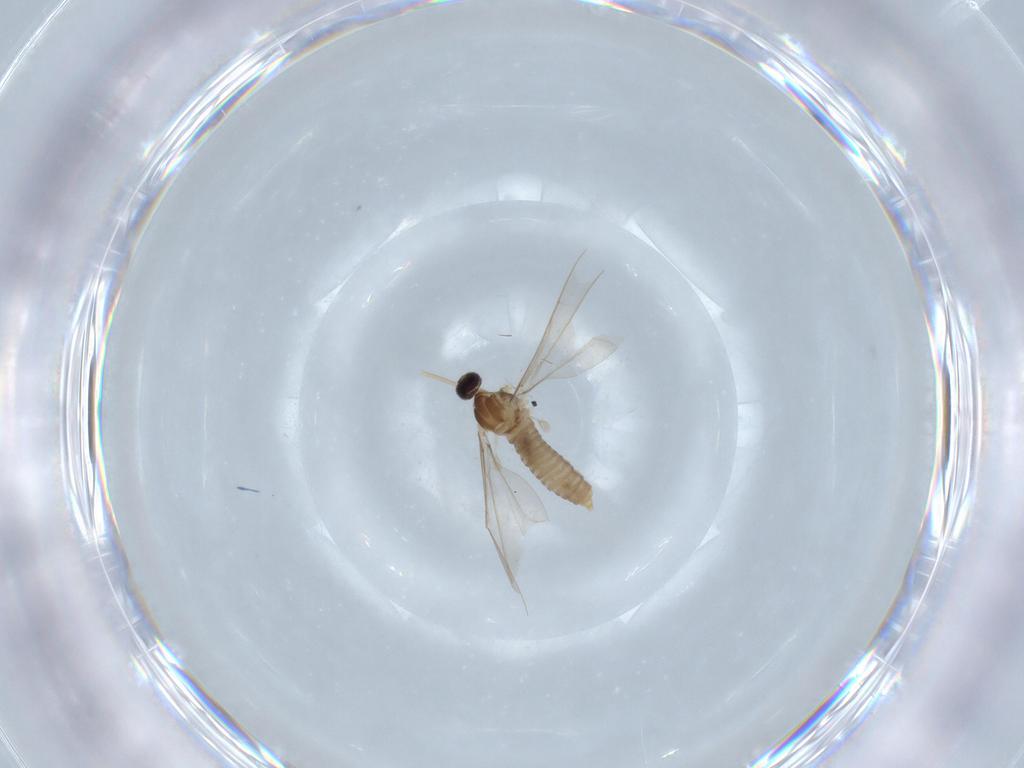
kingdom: Animalia
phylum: Arthropoda
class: Insecta
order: Diptera
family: Cecidomyiidae
